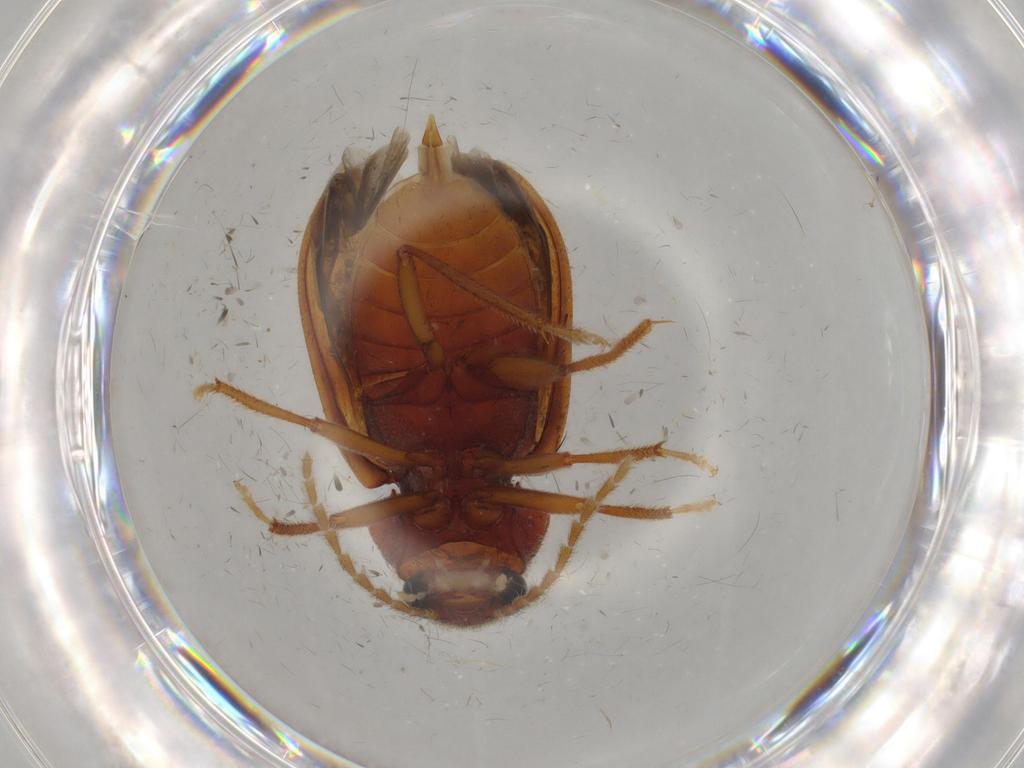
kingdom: Animalia
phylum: Arthropoda
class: Insecta
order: Coleoptera
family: Ptilodactylidae
